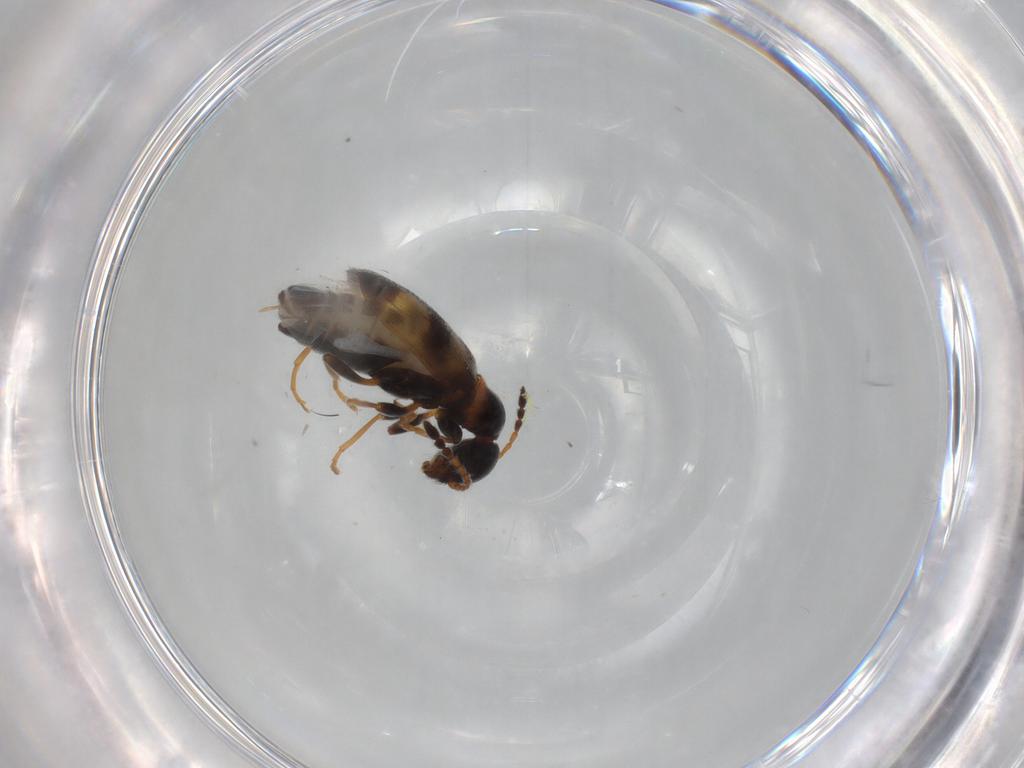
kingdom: Animalia
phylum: Arthropoda
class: Insecta
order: Coleoptera
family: Anthicidae
